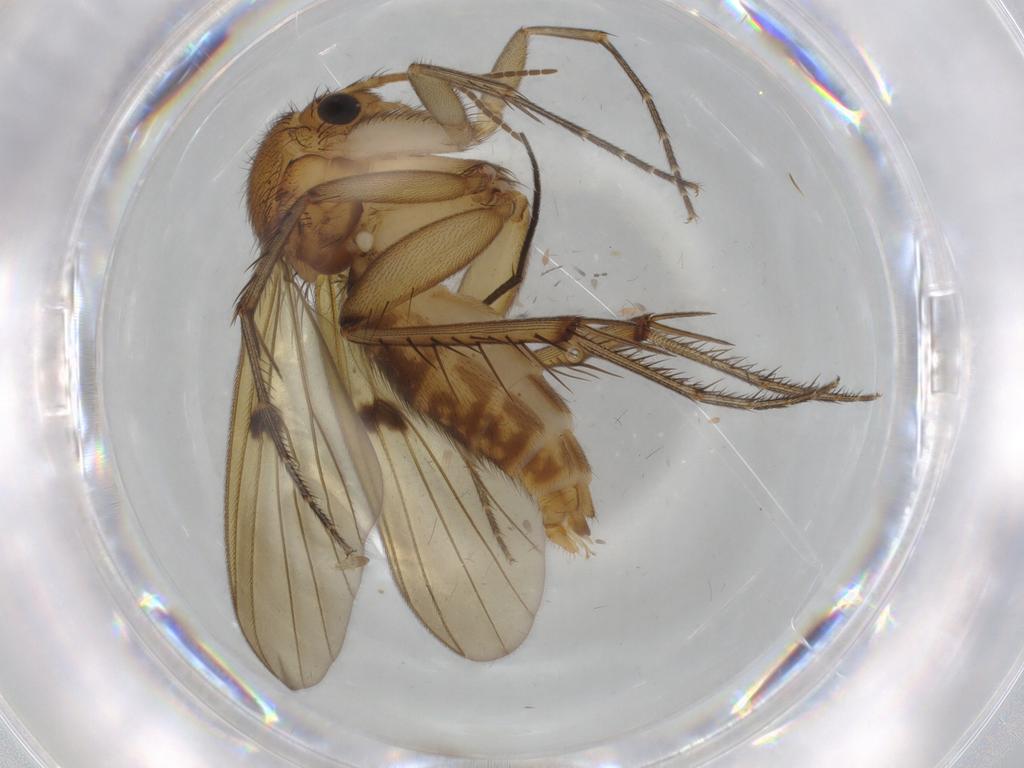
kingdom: Animalia
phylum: Arthropoda
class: Insecta
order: Diptera
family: Sciaridae
